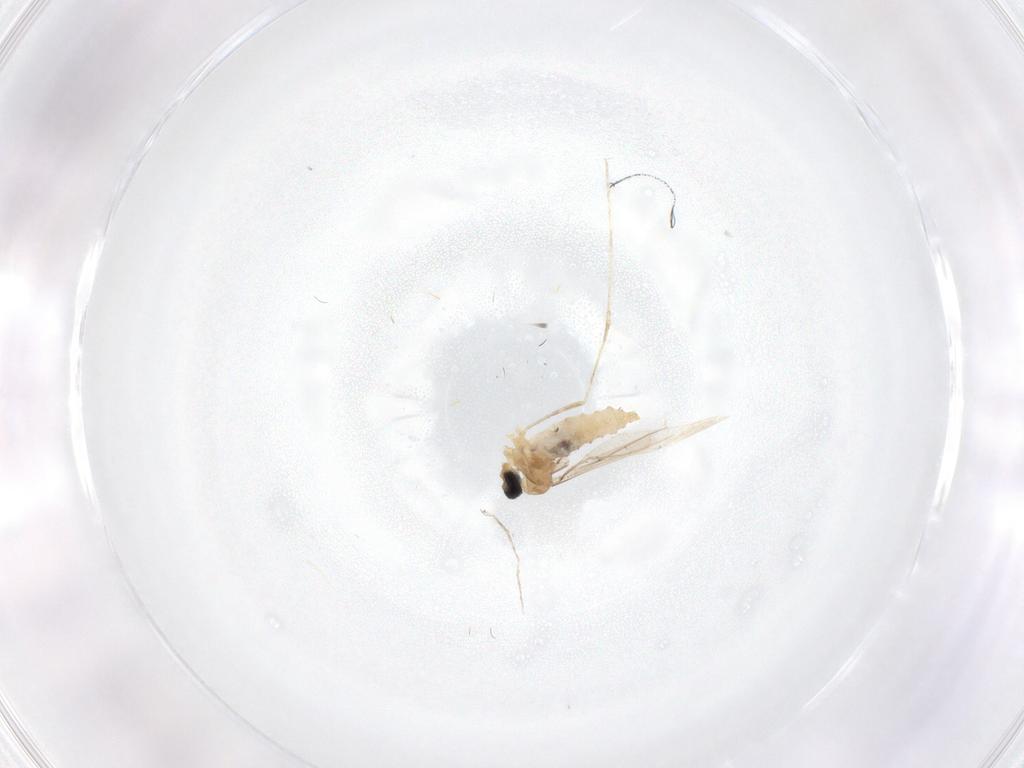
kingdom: Animalia
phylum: Arthropoda
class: Insecta
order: Diptera
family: Cecidomyiidae
